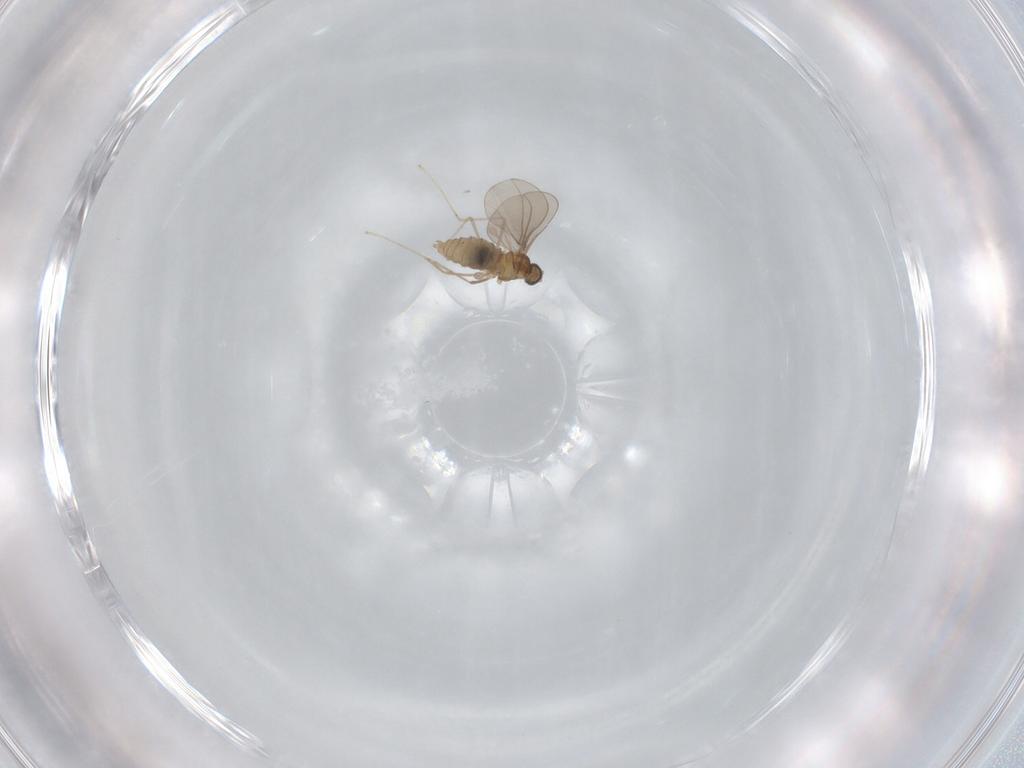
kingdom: Animalia
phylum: Arthropoda
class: Insecta
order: Diptera
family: Cecidomyiidae
